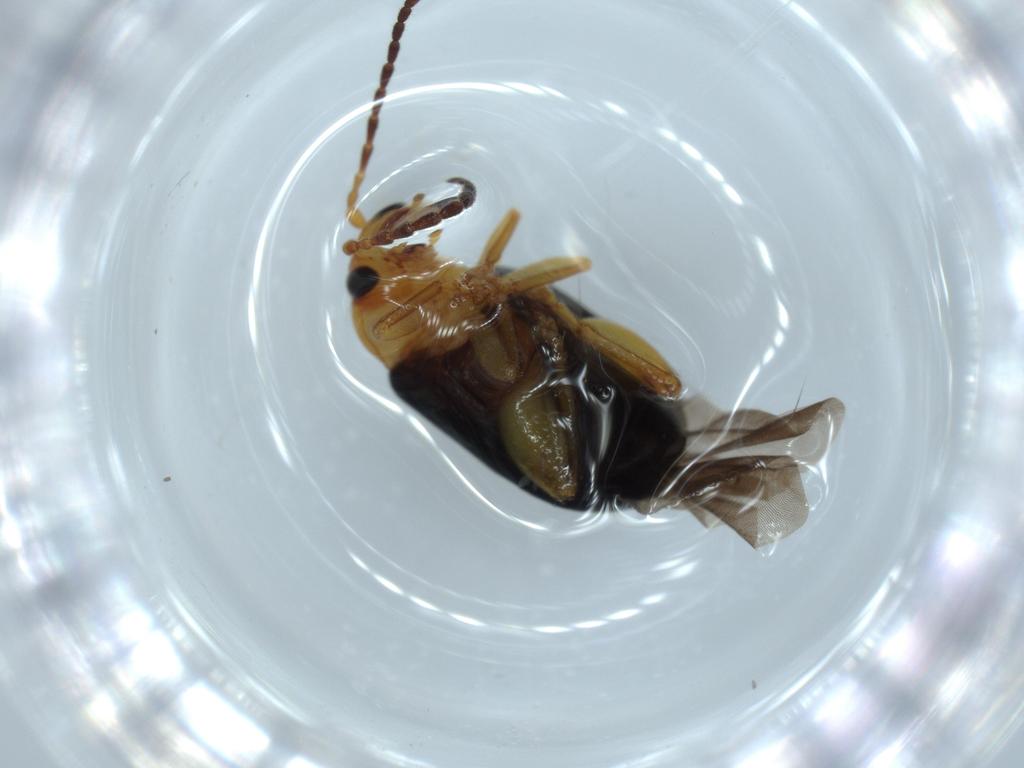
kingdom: Animalia
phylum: Arthropoda
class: Insecta
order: Coleoptera
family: Chrysomelidae
